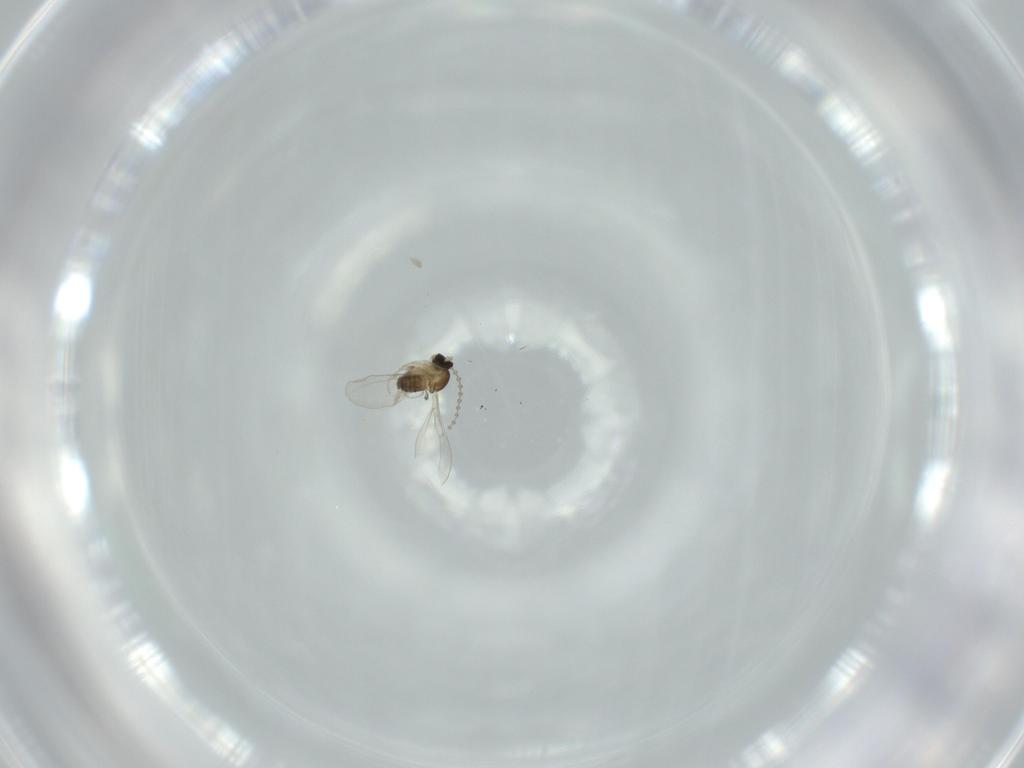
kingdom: Animalia
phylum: Arthropoda
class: Insecta
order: Diptera
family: Cecidomyiidae
